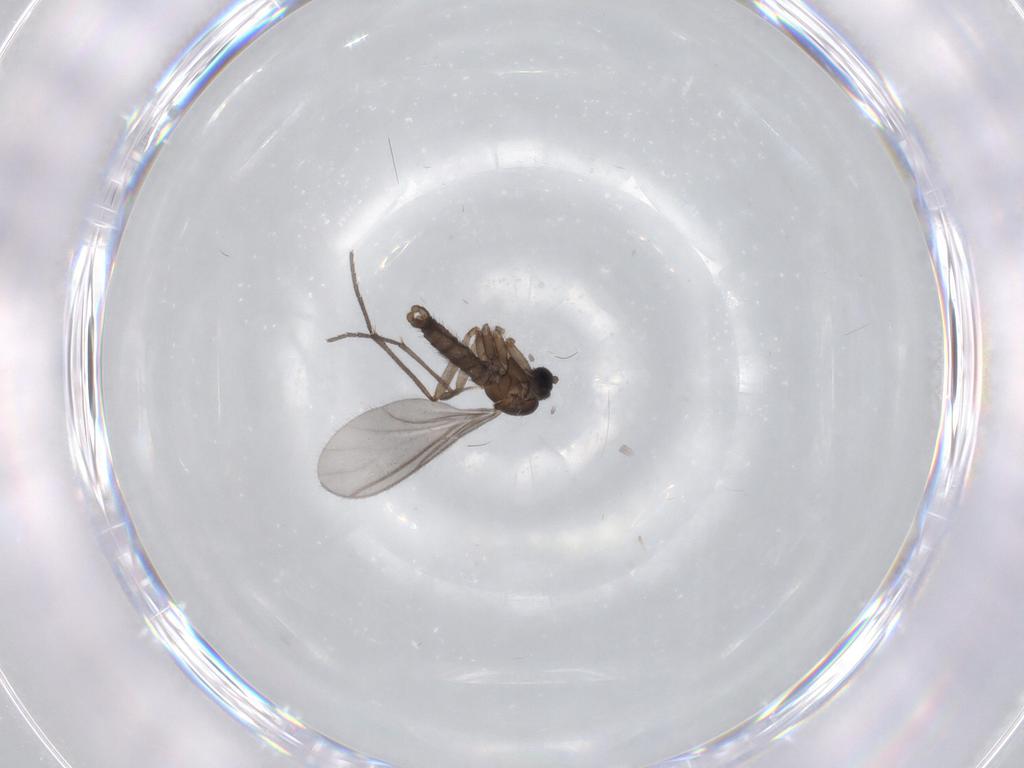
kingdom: Animalia
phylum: Arthropoda
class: Insecta
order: Diptera
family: Sciaridae
